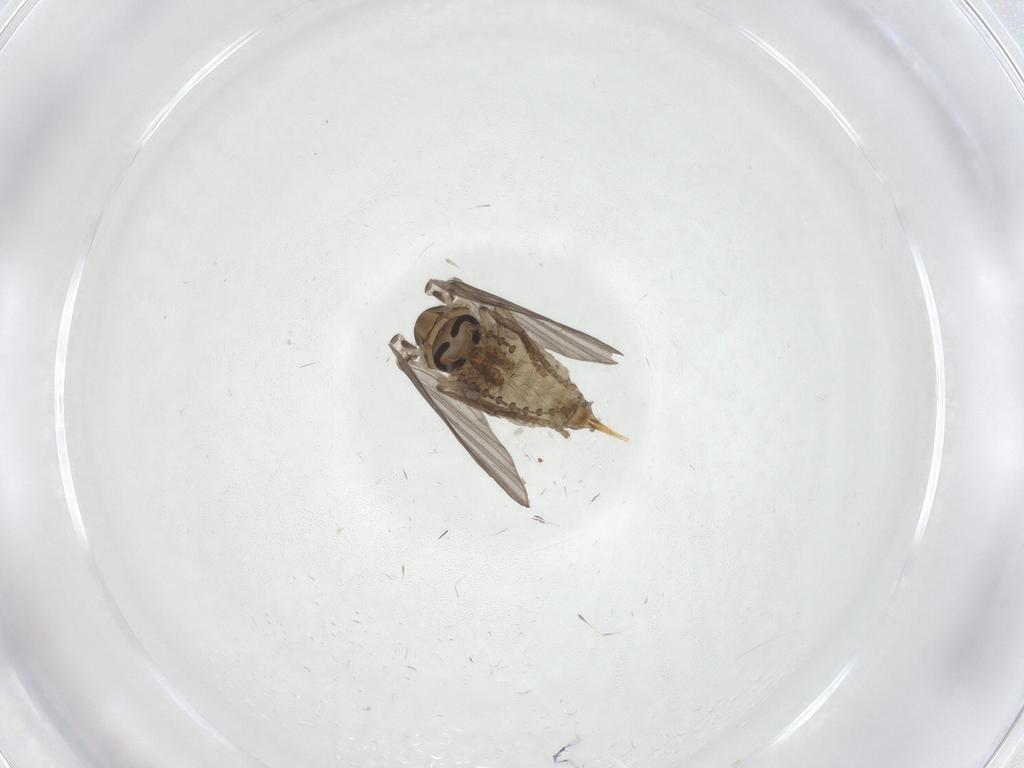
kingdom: Animalia
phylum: Arthropoda
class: Insecta
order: Diptera
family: Psychodidae
